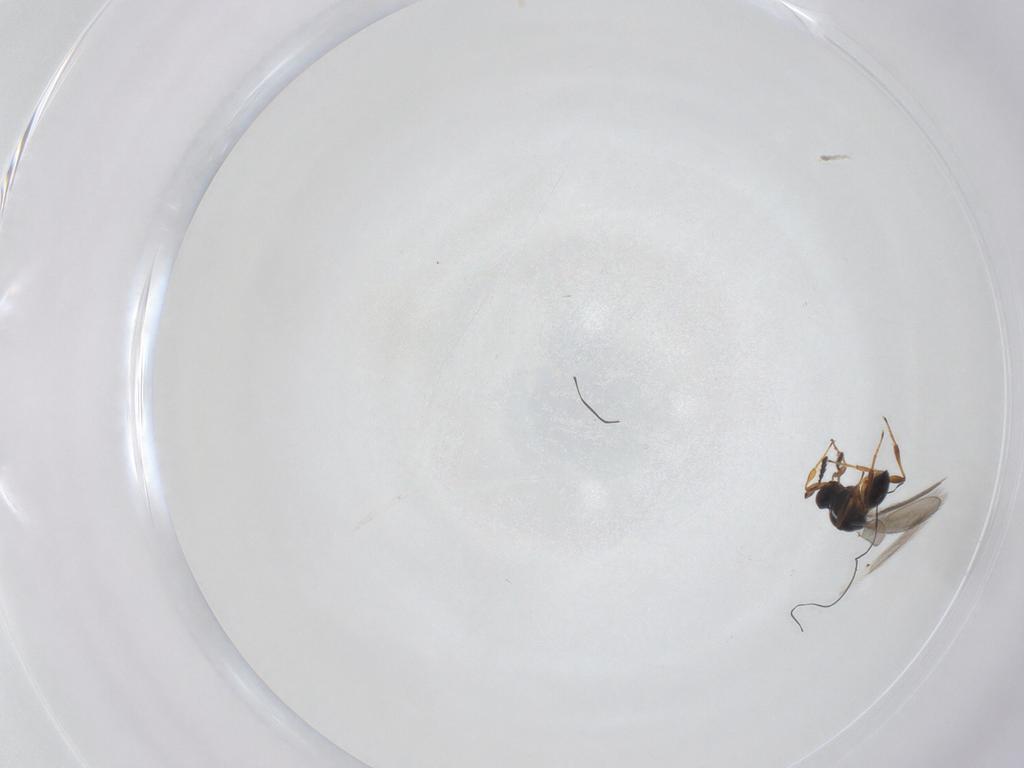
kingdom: Animalia
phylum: Arthropoda
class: Insecta
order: Hymenoptera
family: Platygastridae
